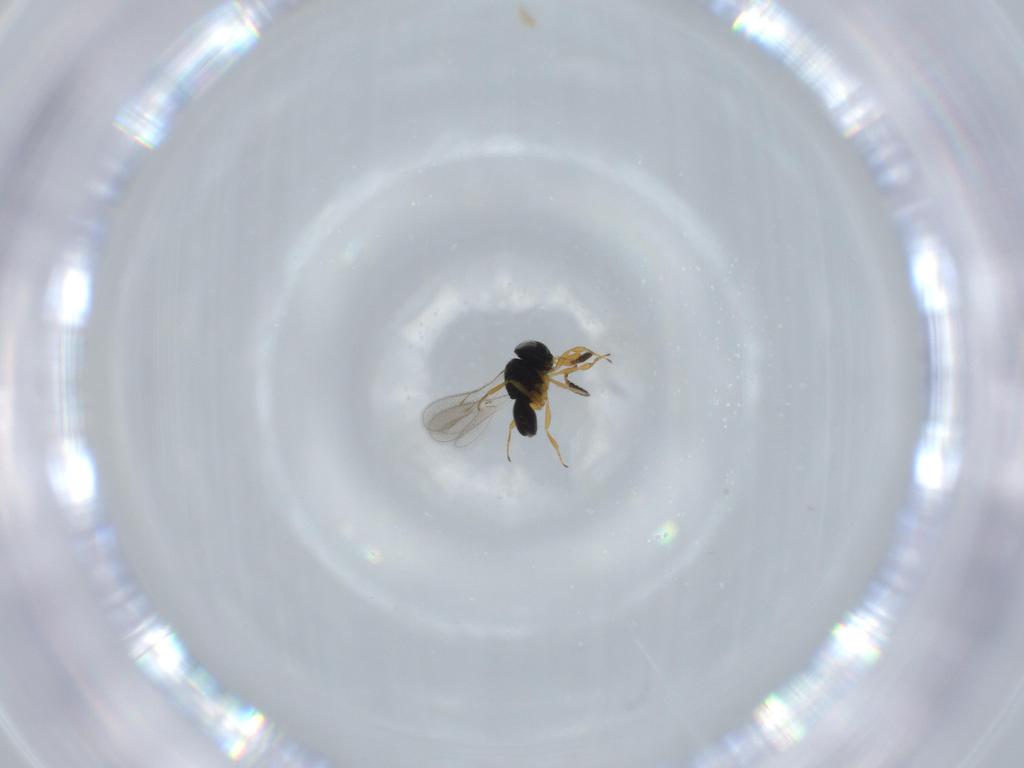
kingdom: Animalia
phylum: Arthropoda
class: Insecta
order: Hymenoptera
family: Scelionidae
